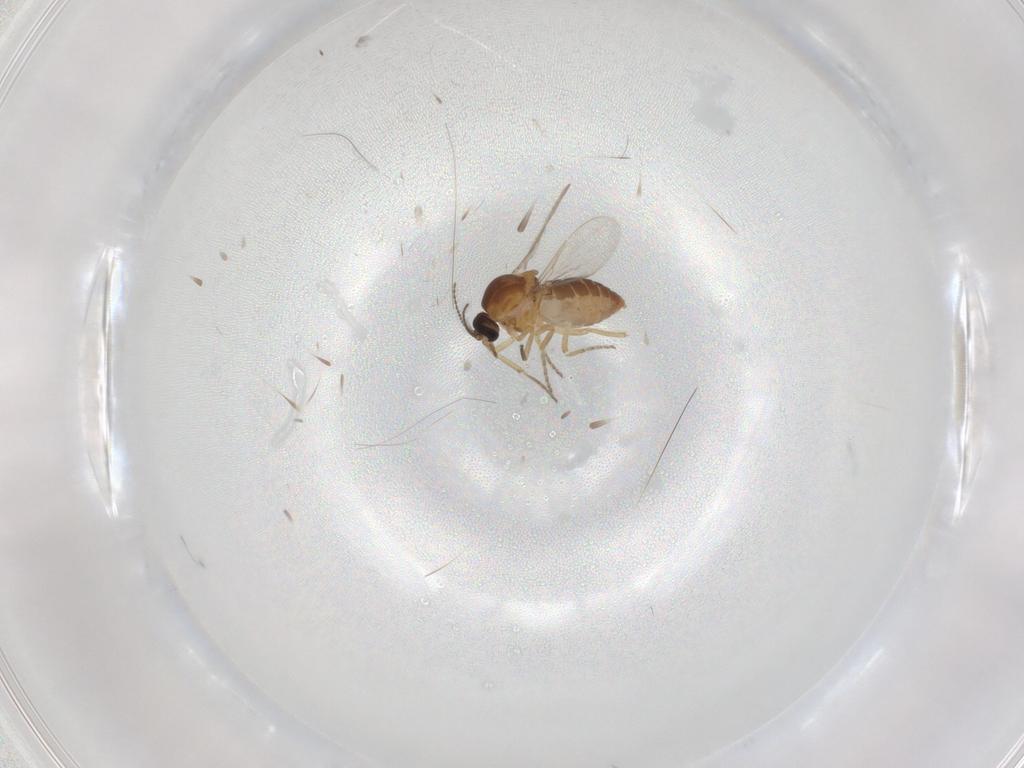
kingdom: Animalia
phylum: Arthropoda
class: Insecta
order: Diptera
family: Ceratopogonidae
